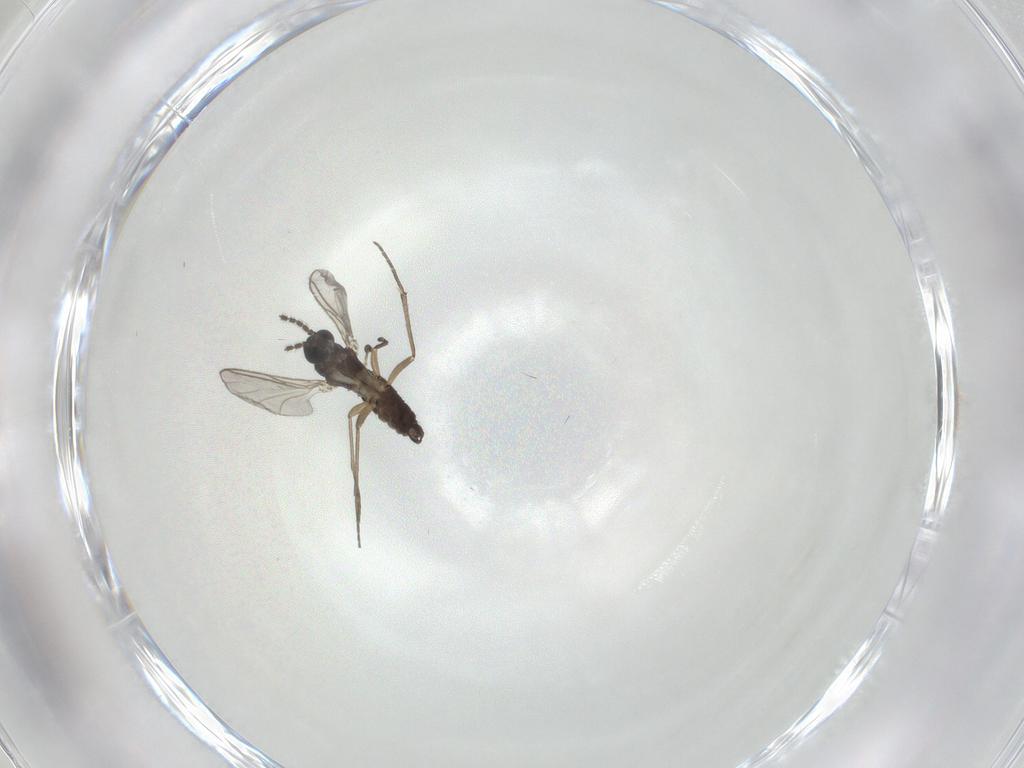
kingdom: Animalia
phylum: Arthropoda
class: Insecta
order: Diptera
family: Sciaridae
